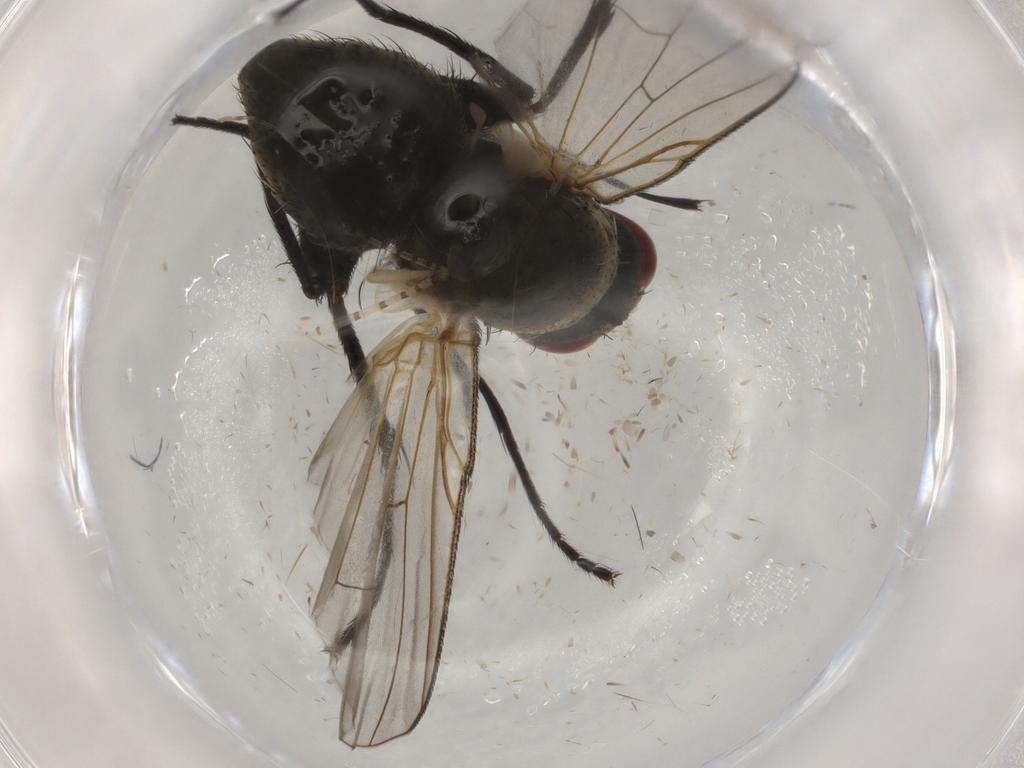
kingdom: Animalia
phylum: Arthropoda
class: Insecta
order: Diptera
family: Muscidae
